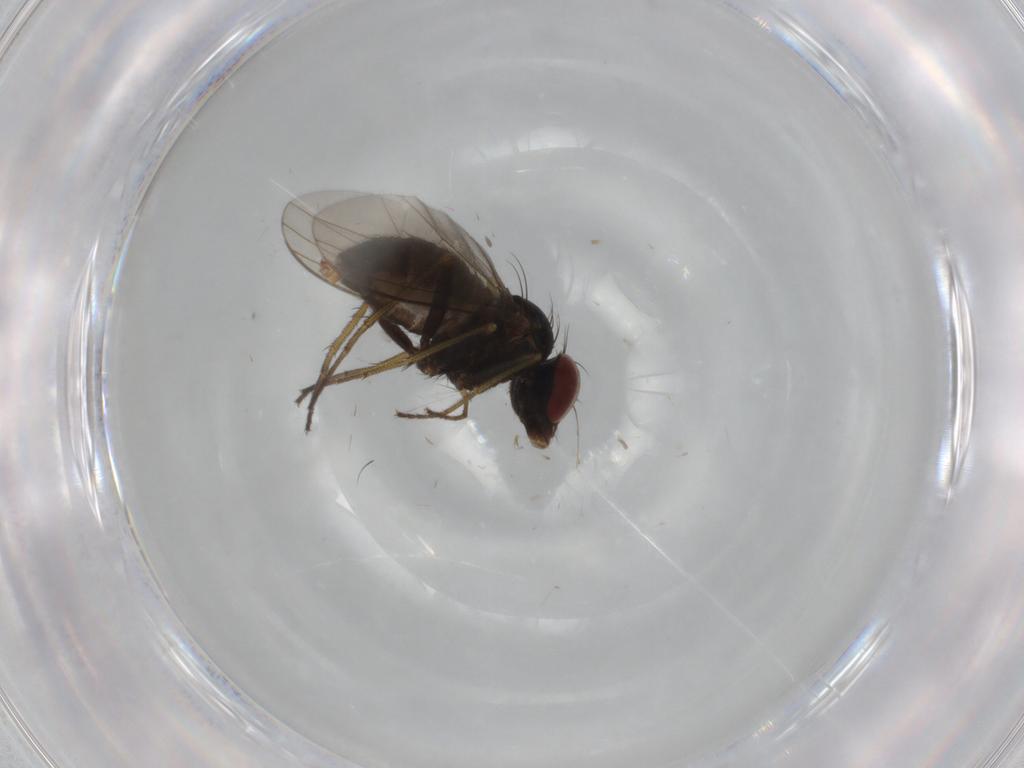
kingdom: Animalia
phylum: Arthropoda
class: Insecta
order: Diptera
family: Dolichopodidae
